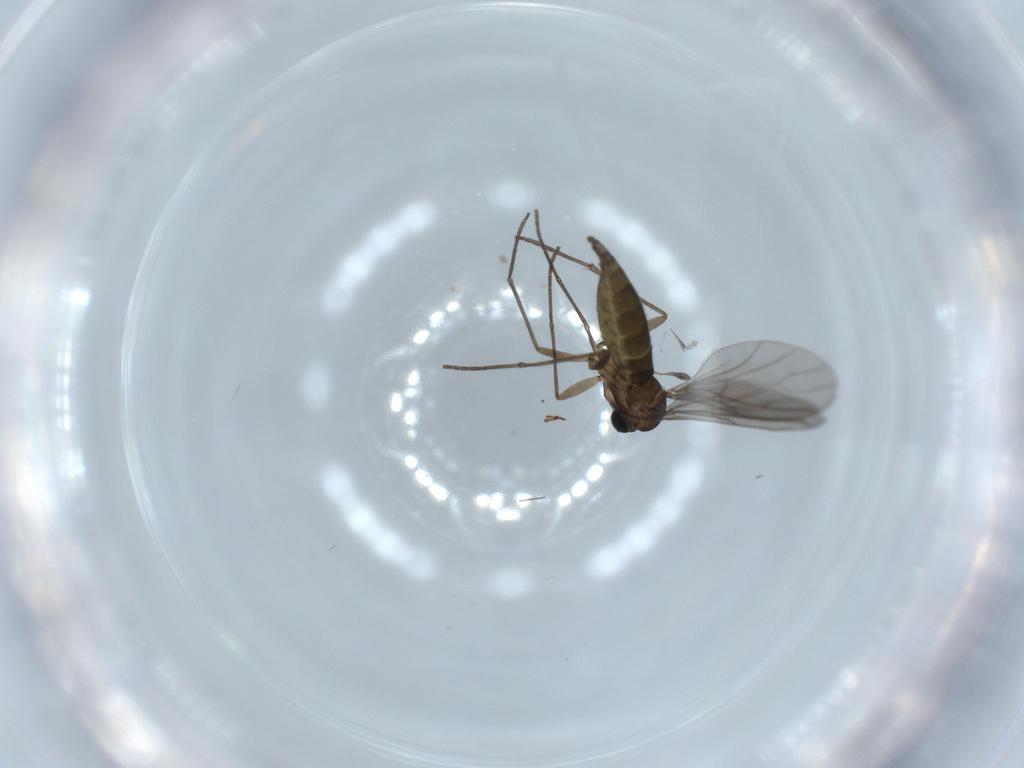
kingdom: Animalia
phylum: Arthropoda
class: Insecta
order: Diptera
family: Sciaridae
